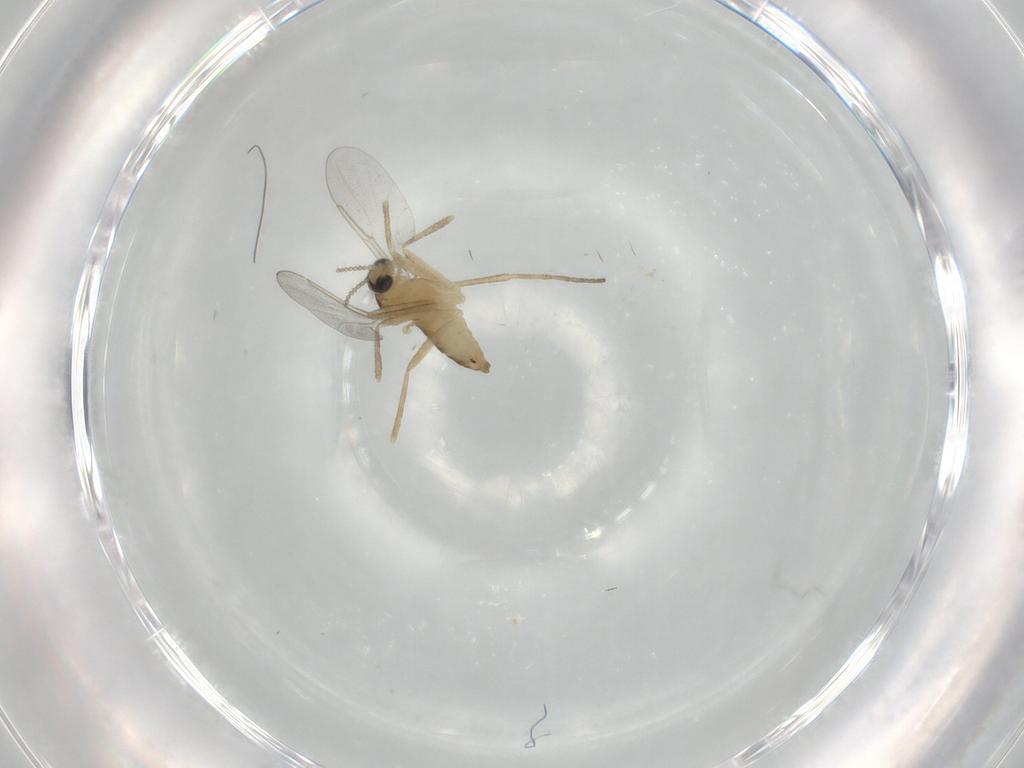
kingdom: Animalia
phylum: Arthropoda
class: Insecta
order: Diptera
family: Cecidomyiidae
